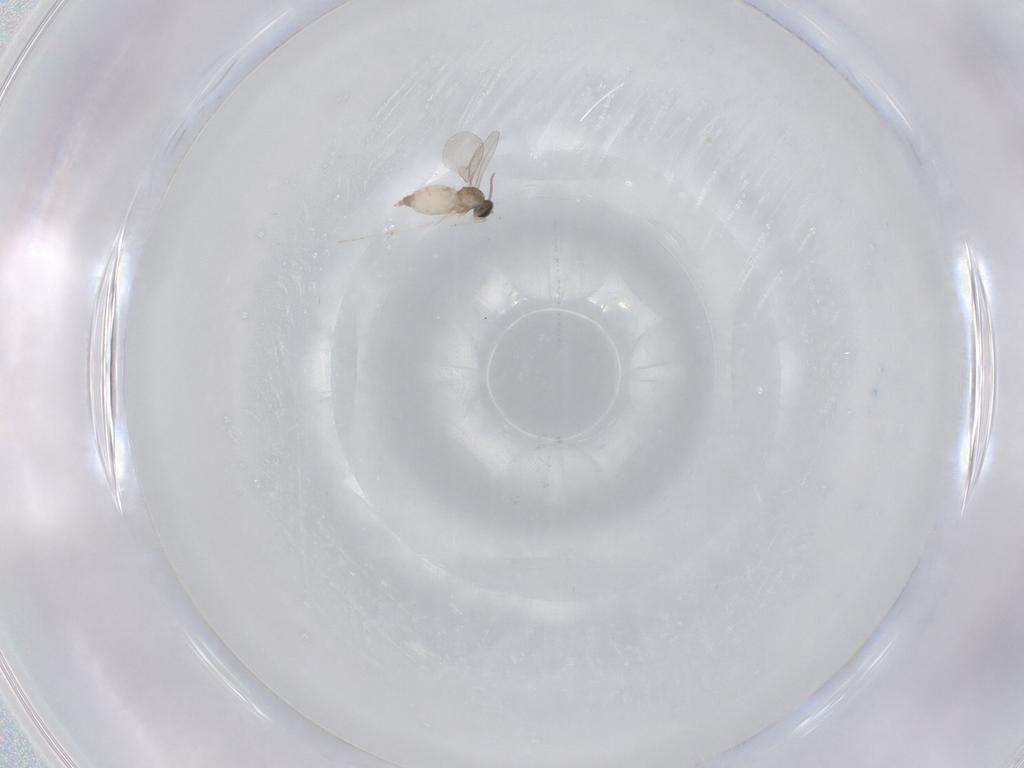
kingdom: Animalia
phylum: Arthropoda
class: Insecta
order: Diptera
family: Cecidomyiidae
